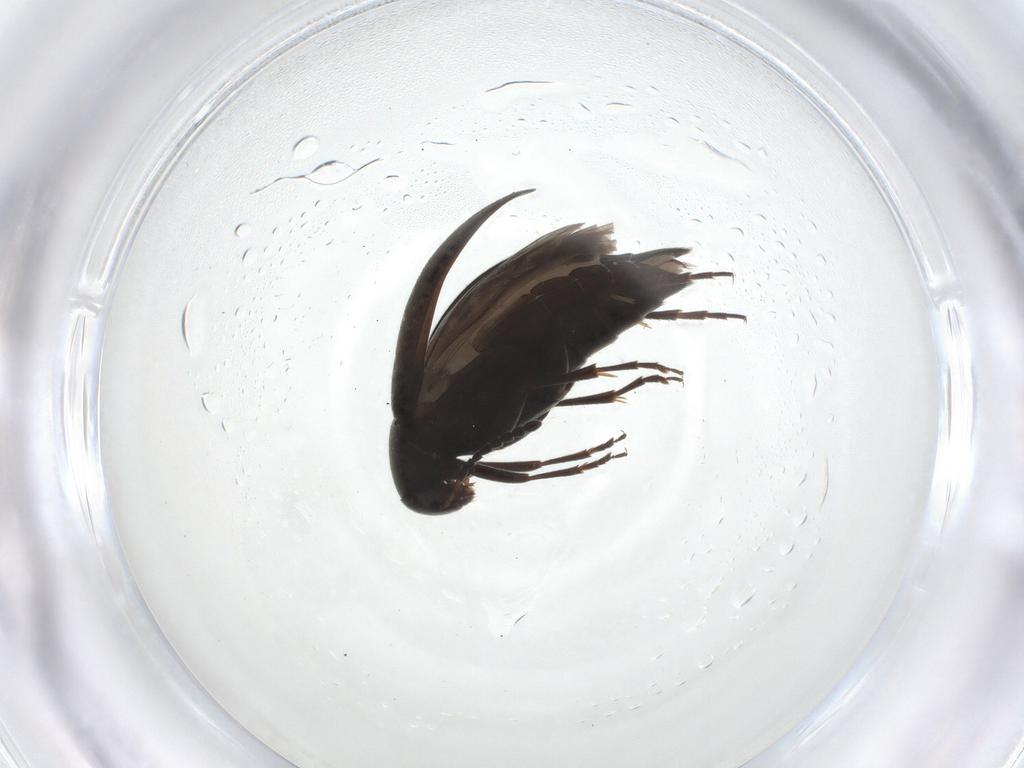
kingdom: Animalia
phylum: Arthropoda
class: Insecta
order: Coleoptera
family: Scraptiidae
